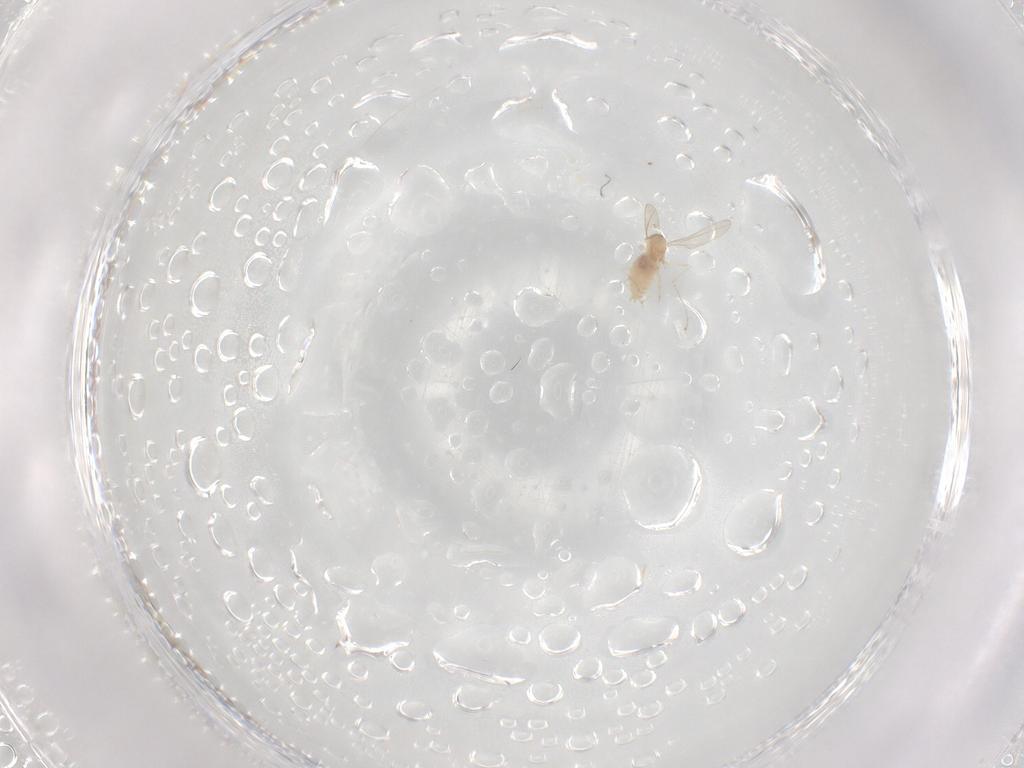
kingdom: Animalia
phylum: Arthropoda
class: Insecta
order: Diptera
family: Cecidomyiidae
